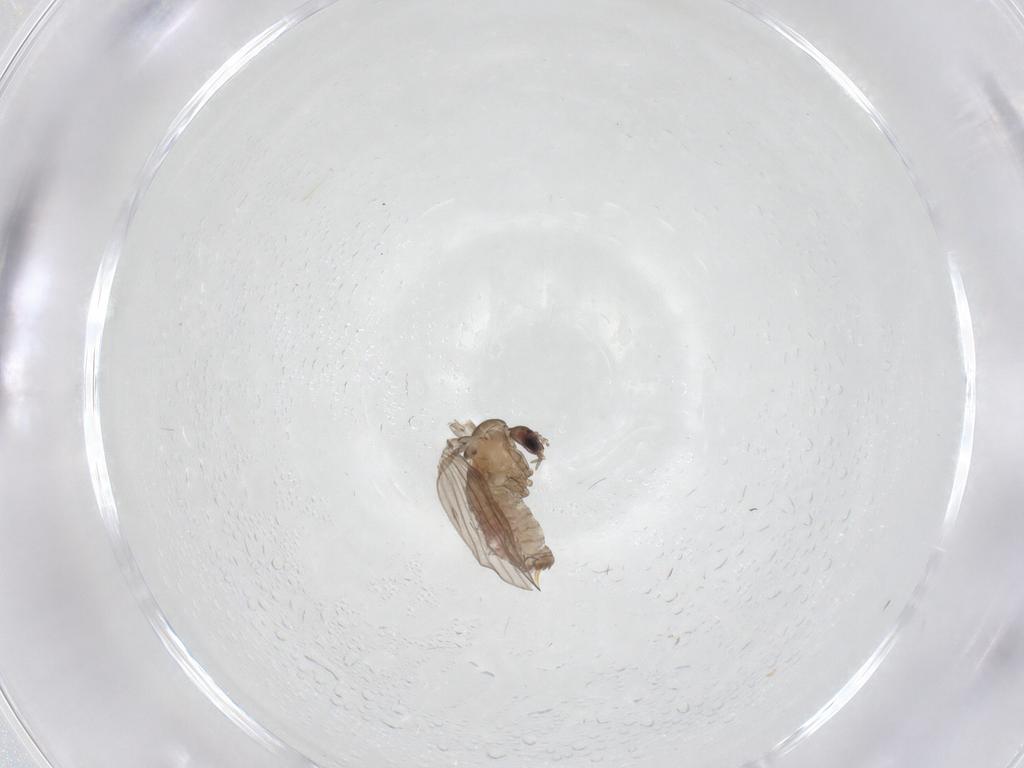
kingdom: Animalia
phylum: Arthropoda
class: Insecta
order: Diptera
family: Psychodidae
